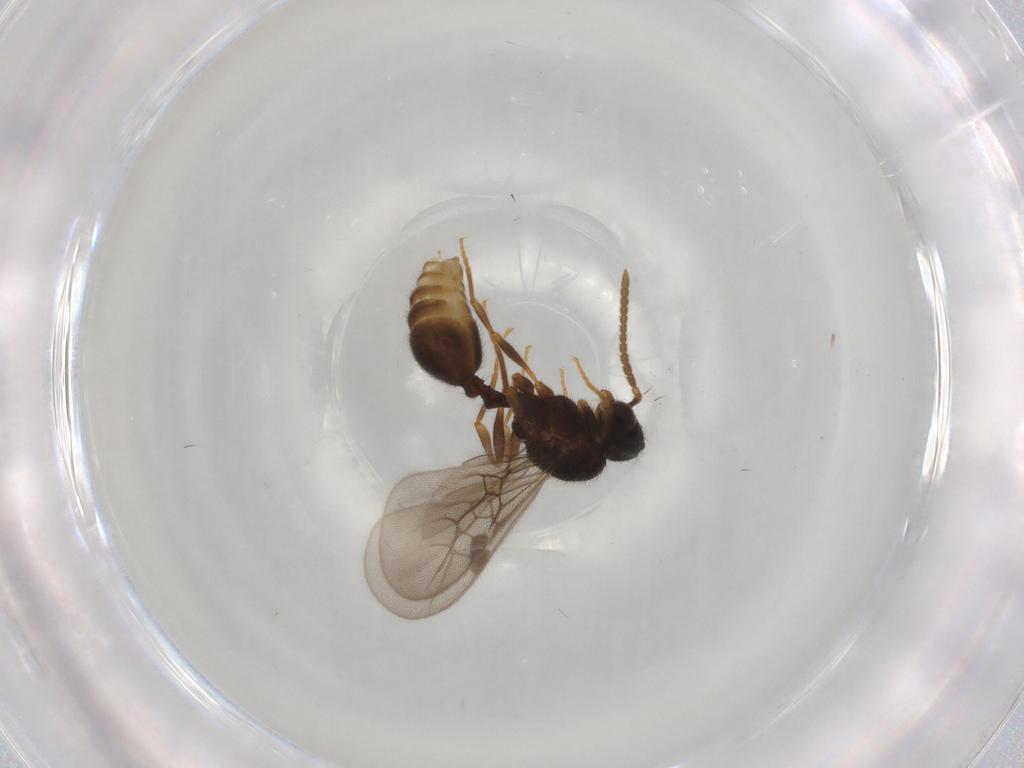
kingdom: Animalia
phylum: Arthropoda
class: Insecta
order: Hymenoptera
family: Formicidae
